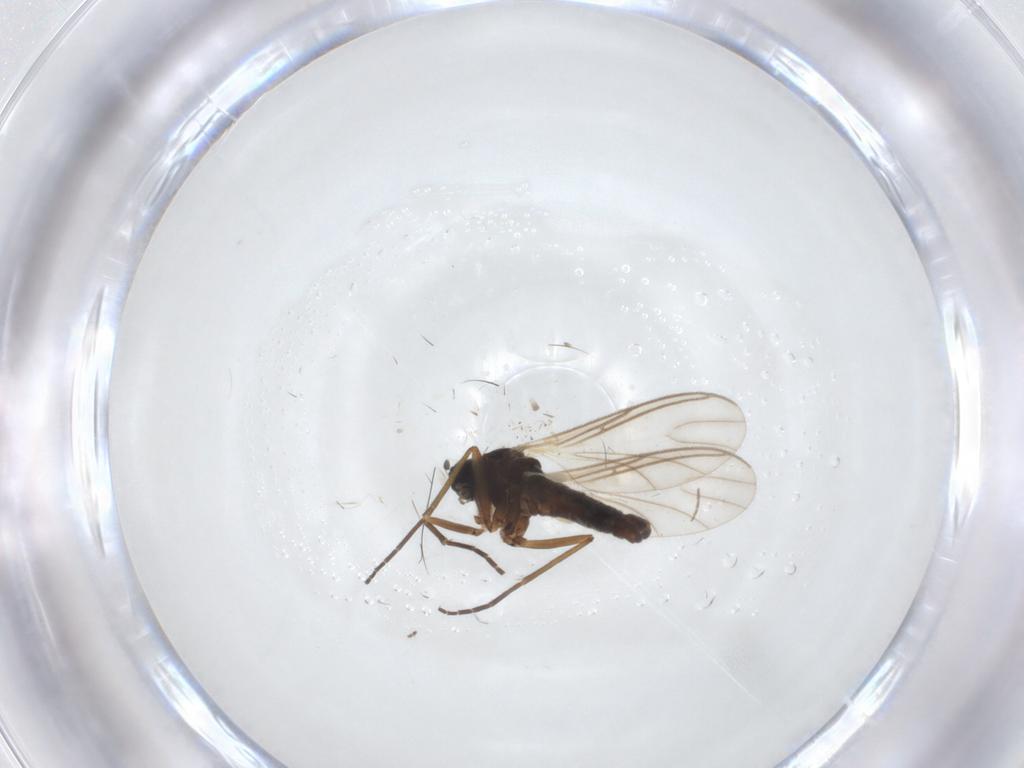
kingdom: Animalia
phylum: Arthropoda
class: Insecta
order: Diptera
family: Sciaridae
